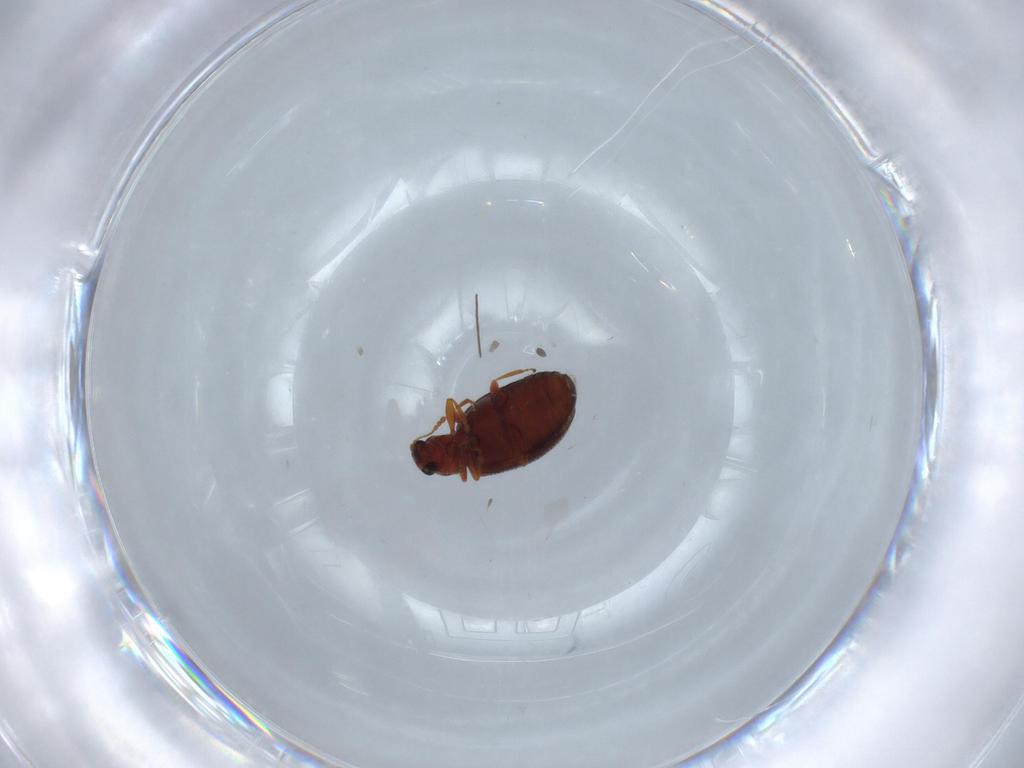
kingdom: Animalia
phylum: Arthropoda
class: Insecta
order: Coleoptera
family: Latridiidae
